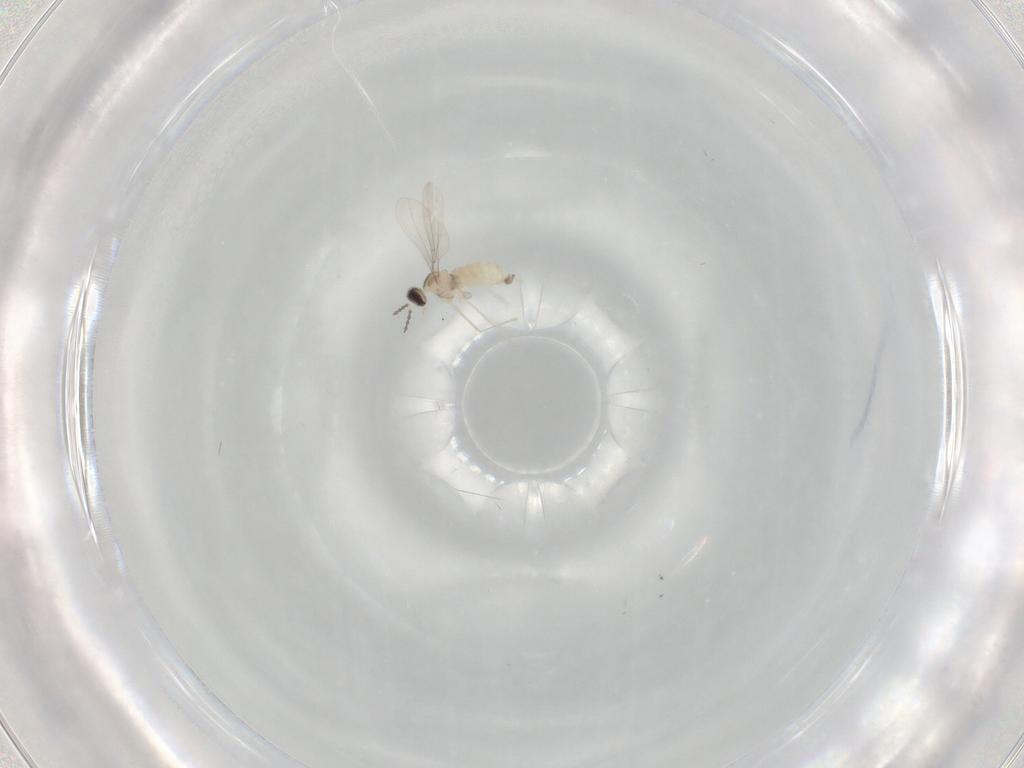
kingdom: Animalia
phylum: Arthropoda
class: Insecta
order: Diptera
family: Cecidomyiidae
